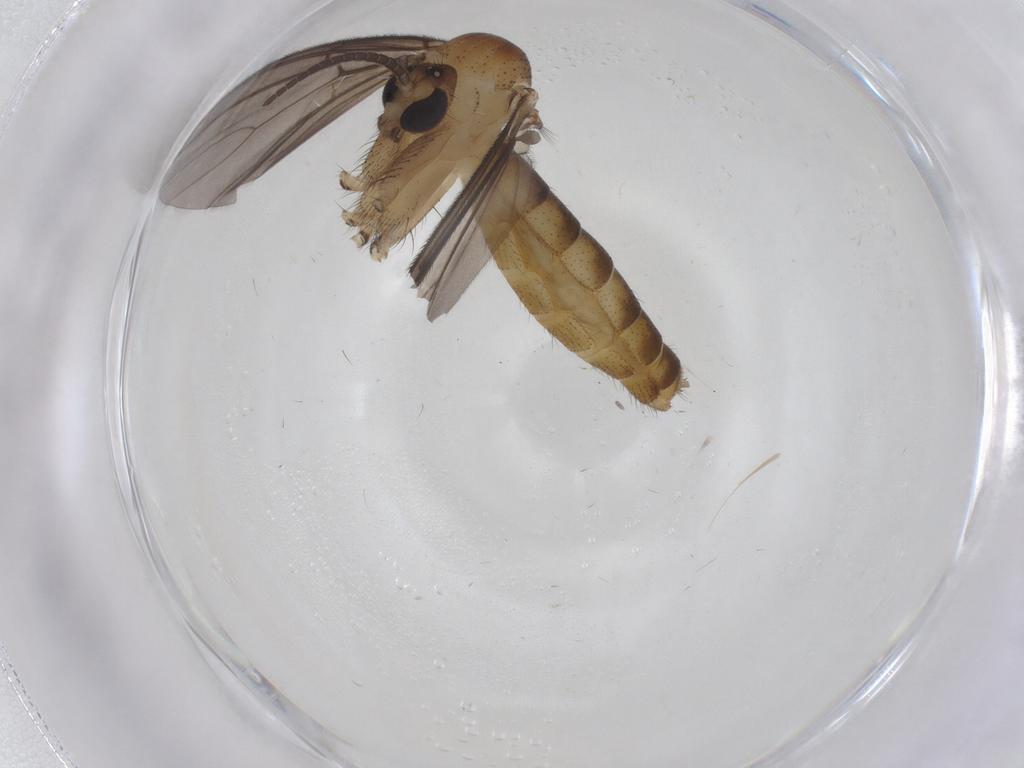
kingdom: Animalia
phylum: Arthropoda
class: Insecta
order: Diptera
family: Mycetophilidae
